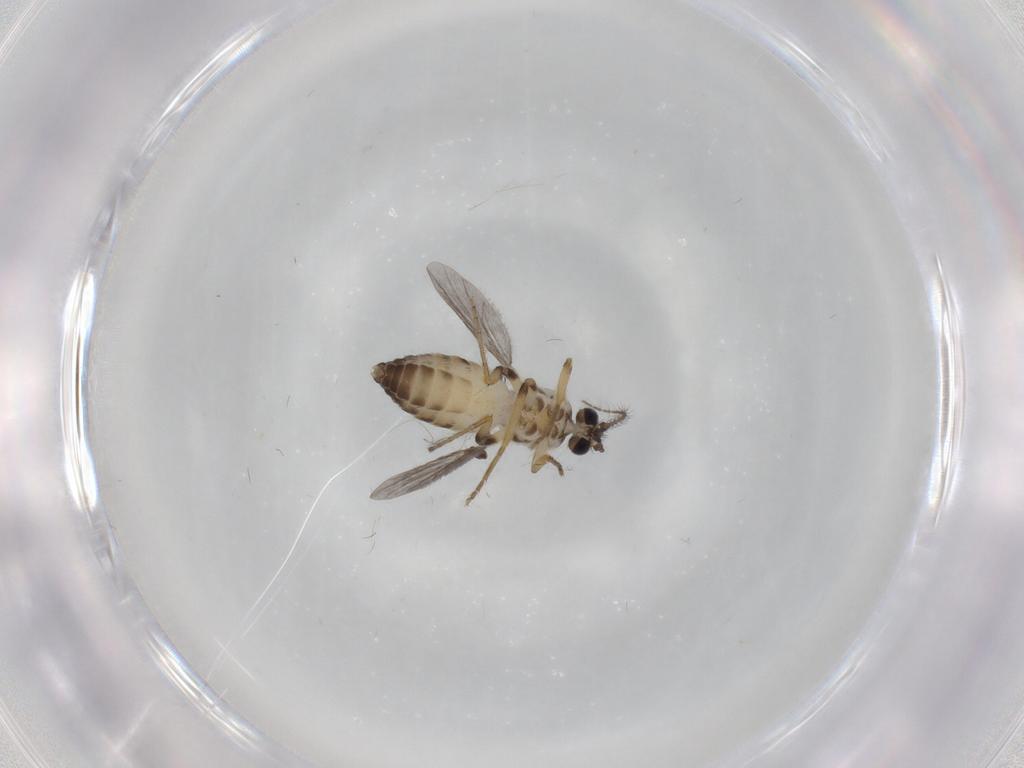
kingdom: Animalia
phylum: Arthropoda
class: Insecta
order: Diptera
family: Ceratopogonidae
